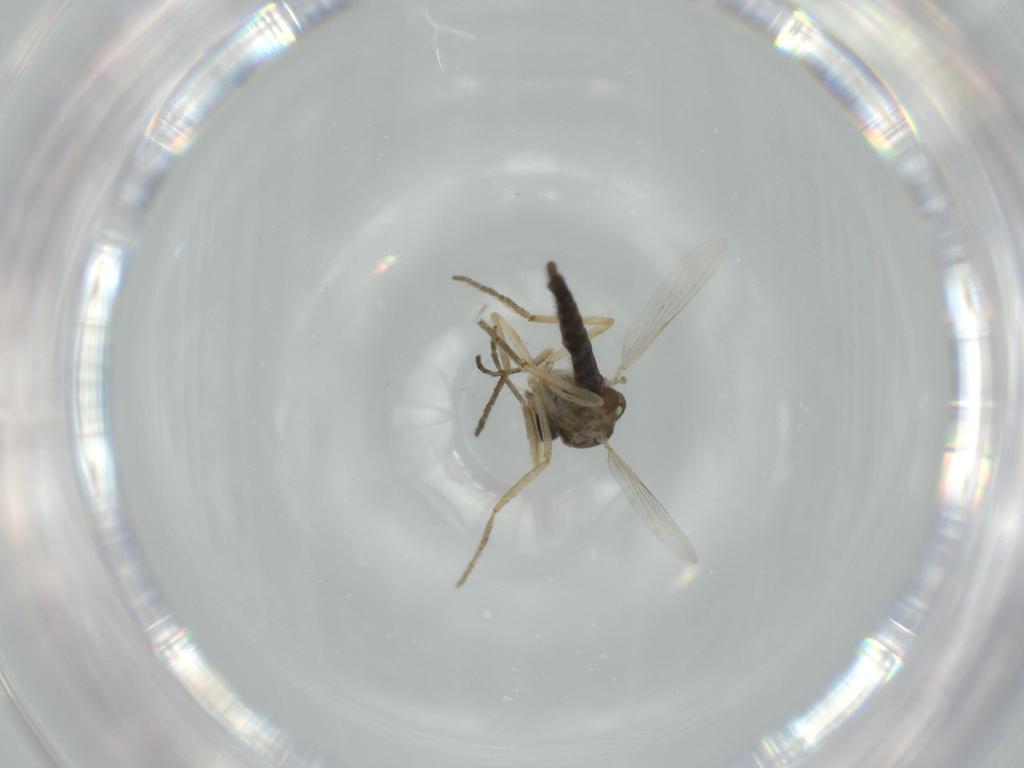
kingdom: Animalia
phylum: Arthropoda
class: Insecta
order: Diptera
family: Ceratopogonidae
